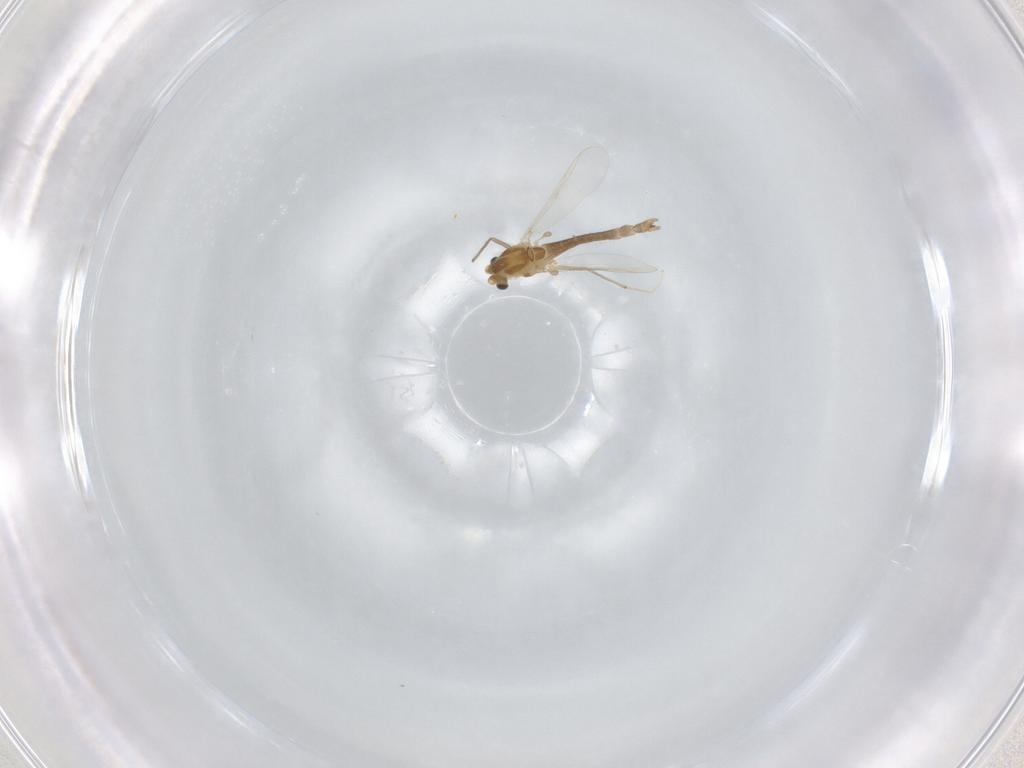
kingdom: Animalia
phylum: Arthropoda
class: Insecta
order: Diptera
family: Chironomidae
